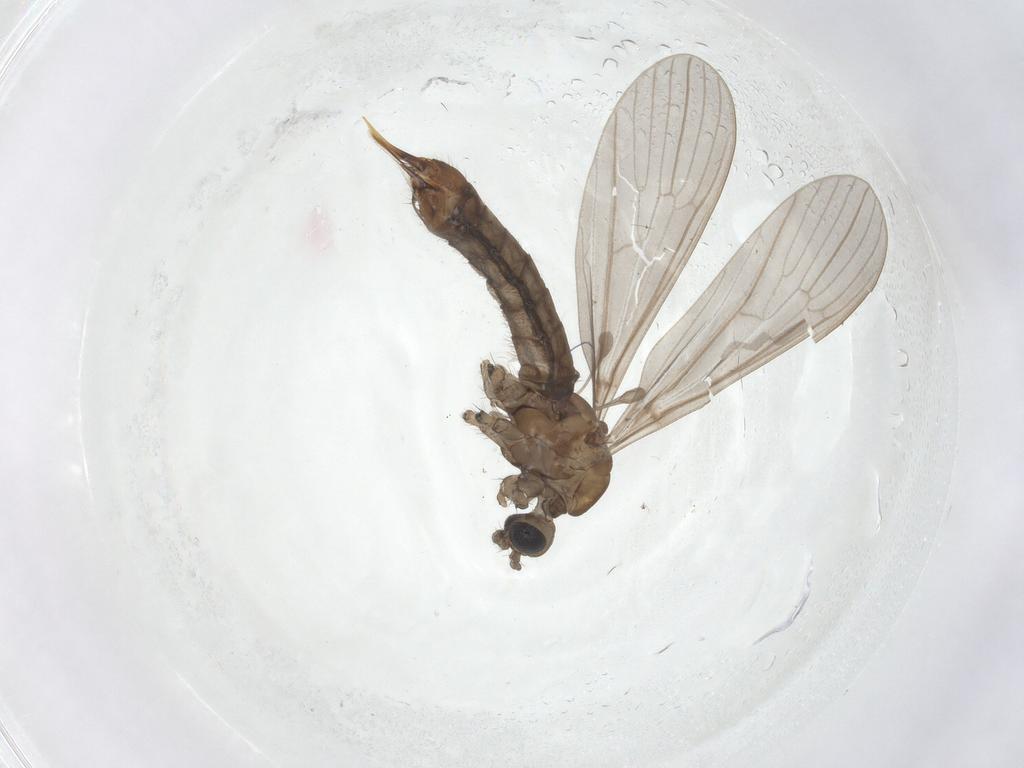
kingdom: Animalia
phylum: Arthropoda
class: Insecta
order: Diptera
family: Limoniidae
